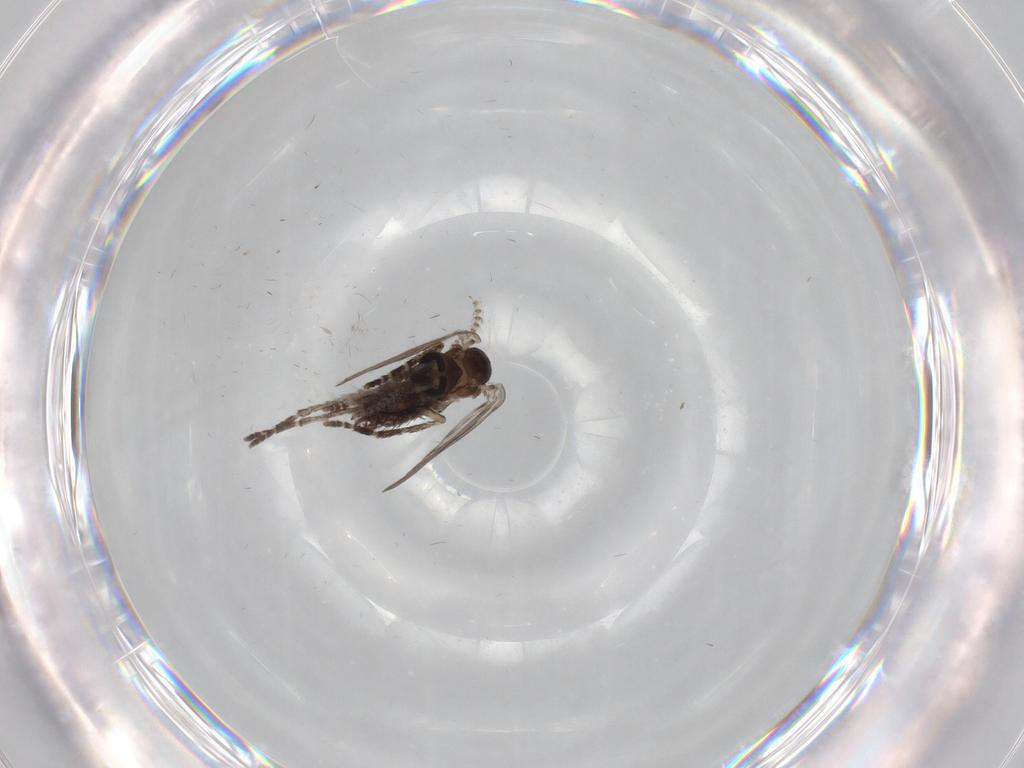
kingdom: Animalia
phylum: Arthropoda
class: Insecta
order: Diptera
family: Psychodidae
